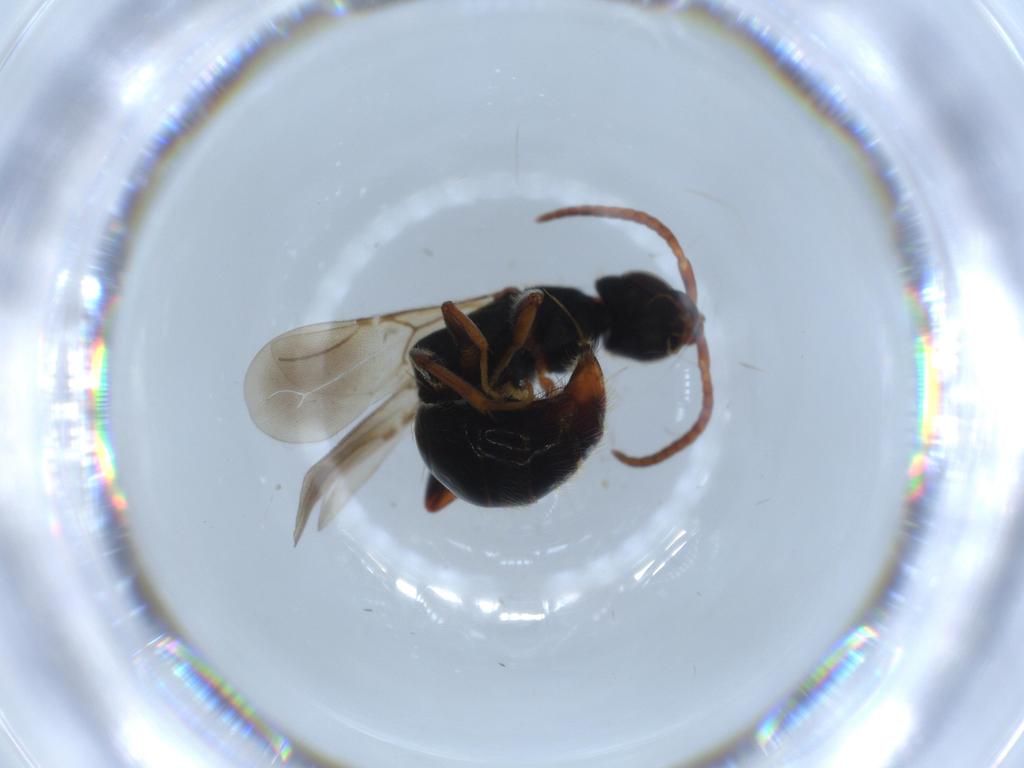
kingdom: Animalia
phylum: Arthropoda
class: Insecta
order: Hymenoptera
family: Bethylidae
